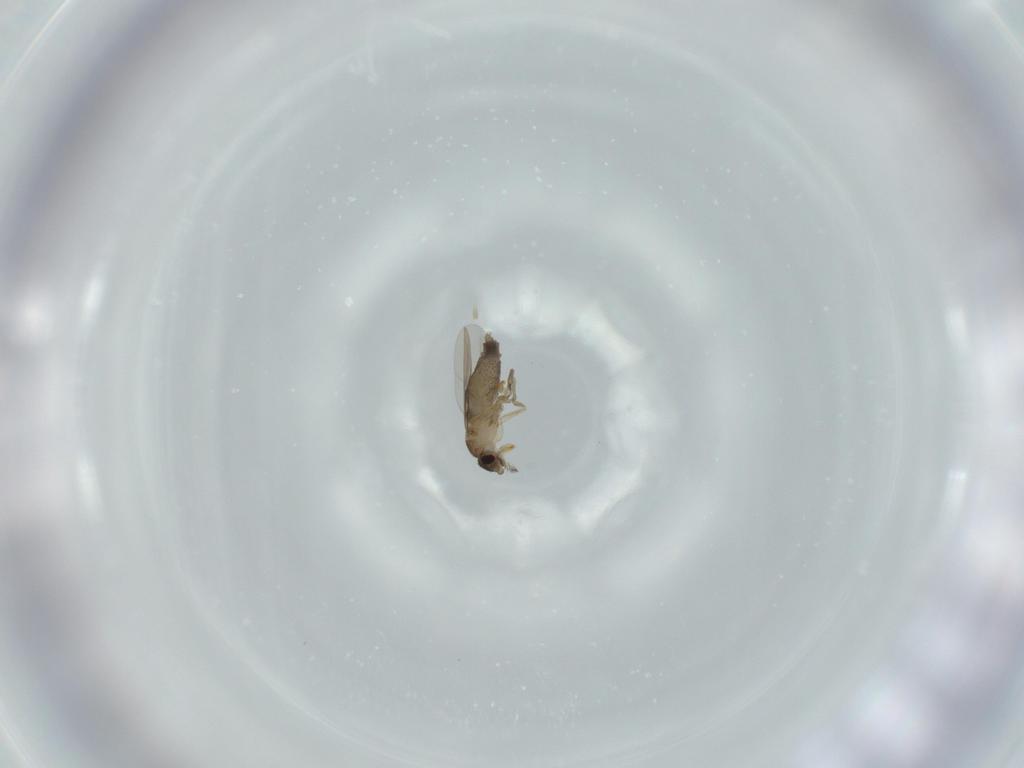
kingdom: Animalia
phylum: Arthropoda
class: Insecta
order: Diptera
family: Phoridae
